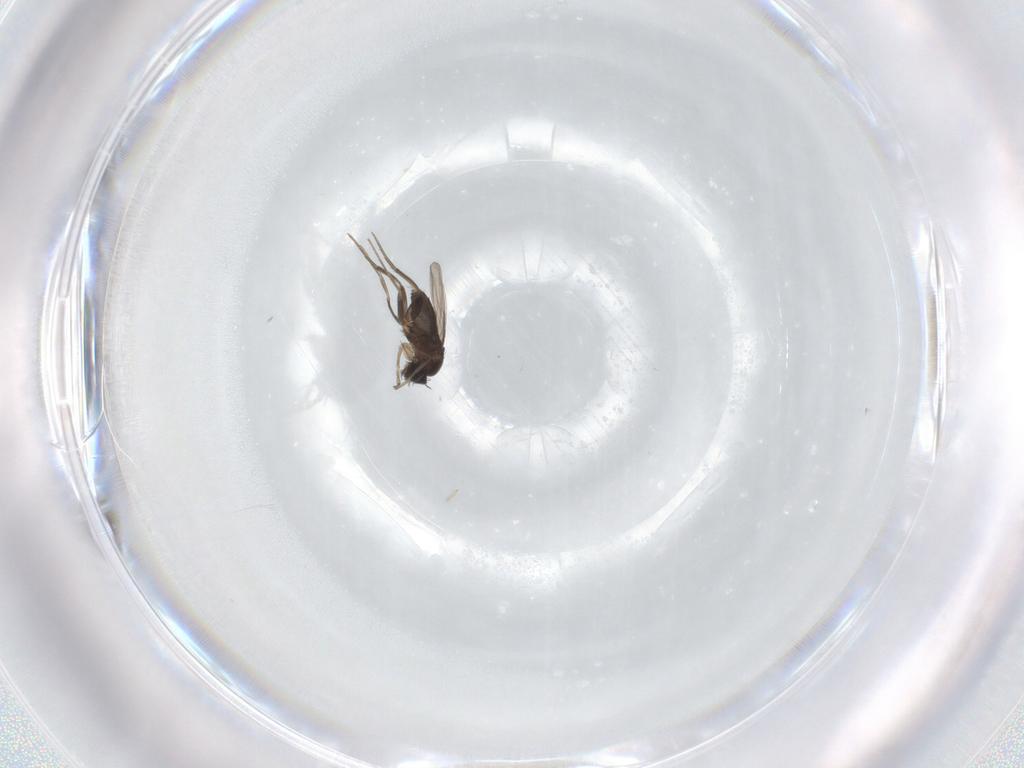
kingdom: Animalia
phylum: Arthropoda
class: Insecta
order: Diptera
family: Phoridae
